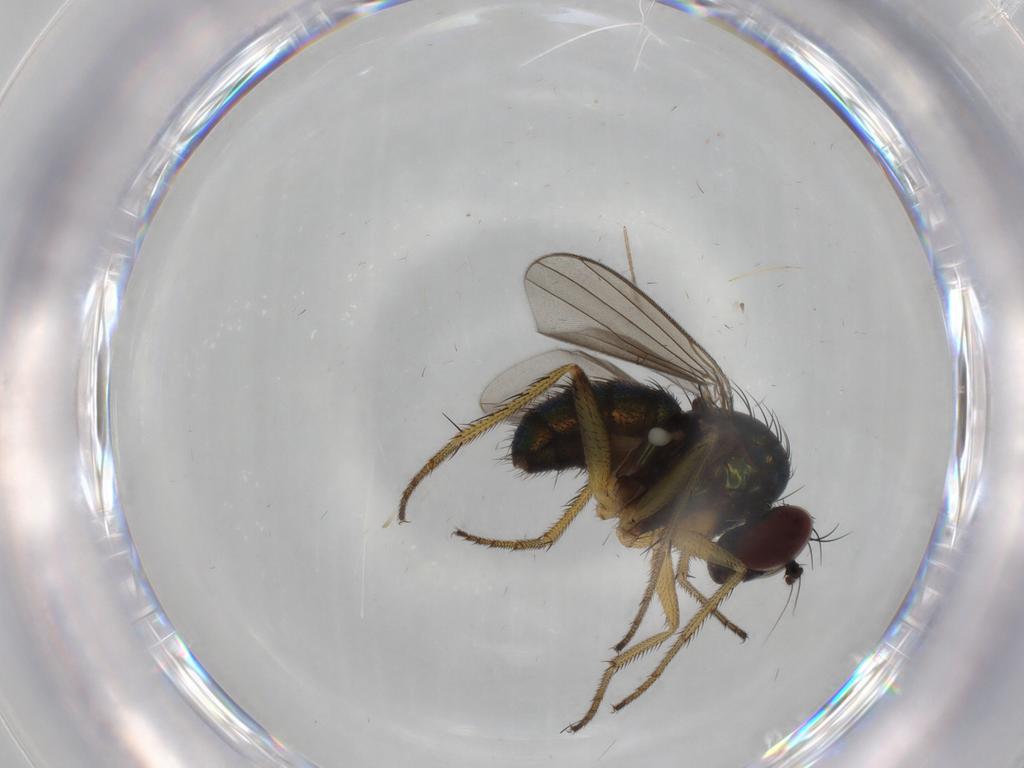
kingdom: Animalia
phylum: Arthropoda
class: Insecta
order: Diptera
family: Dolichopodidae
